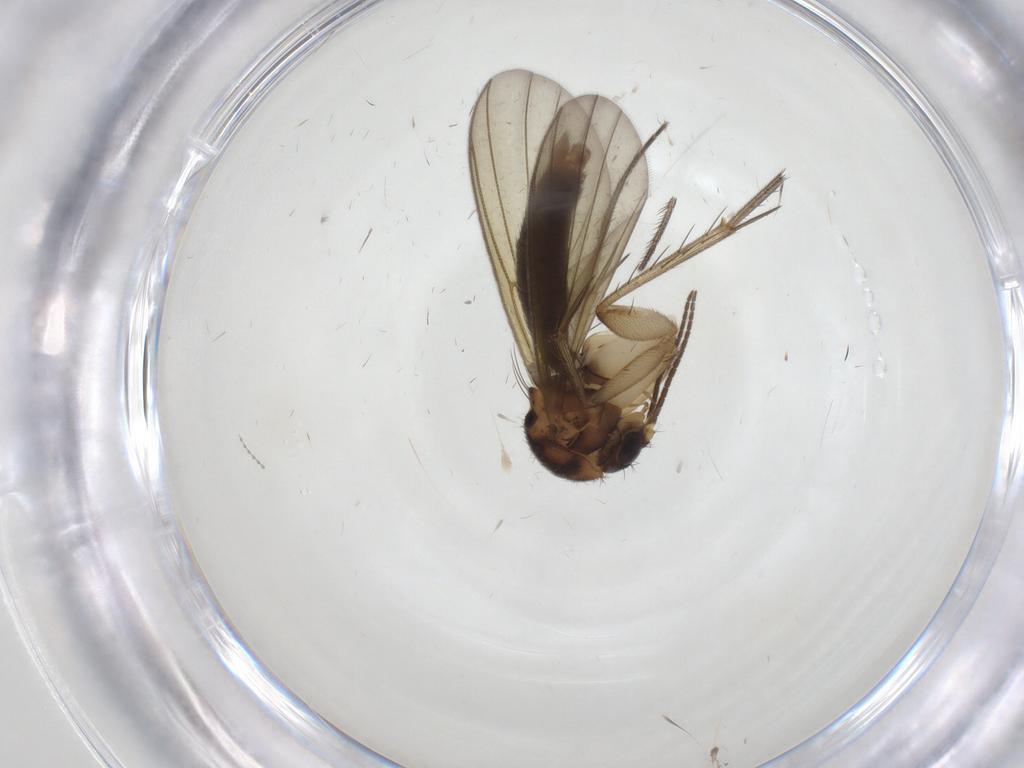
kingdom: Animalia
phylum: Arthropoda
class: Insecta
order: Diptera
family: Mycetophilidae
